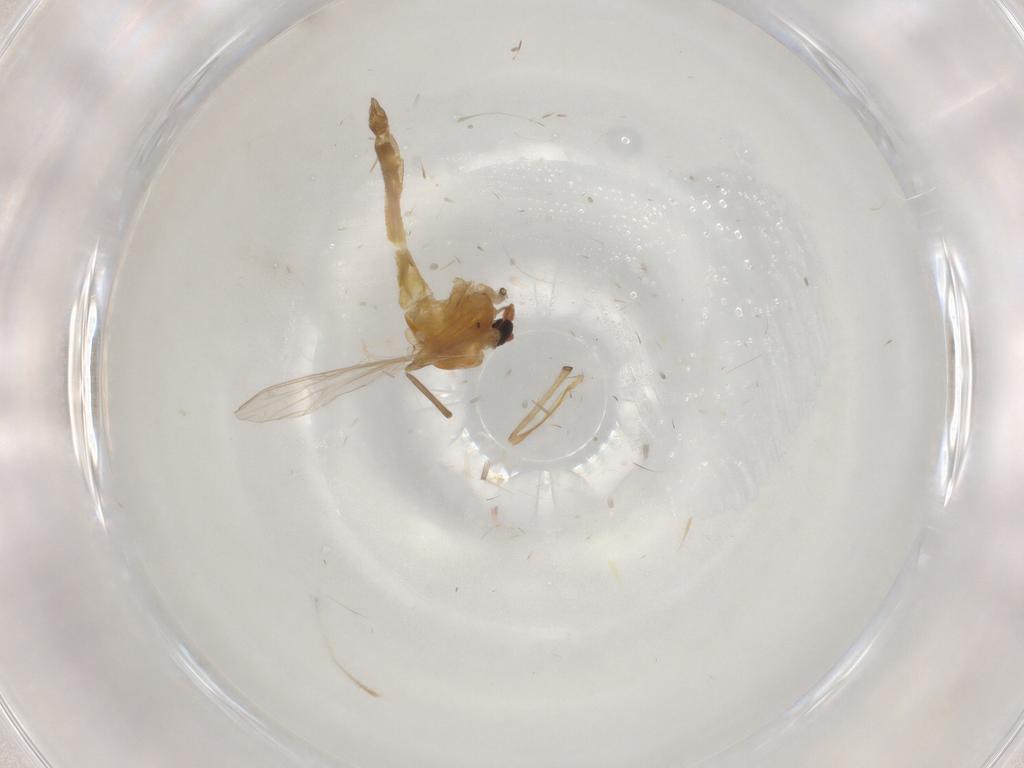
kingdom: Animalia
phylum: Arthropoda
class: Insecta
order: Diptera
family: Chironomidae
